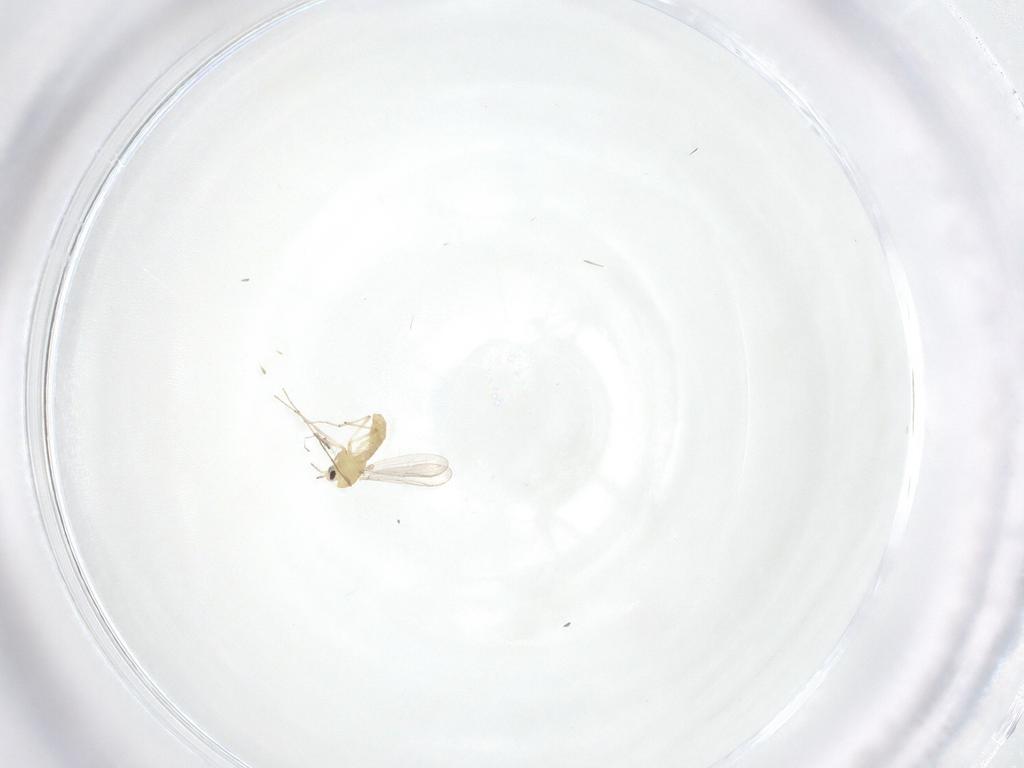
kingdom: Animalia
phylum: Arthropoda
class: Insecta
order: Diptera
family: Chironomidae
